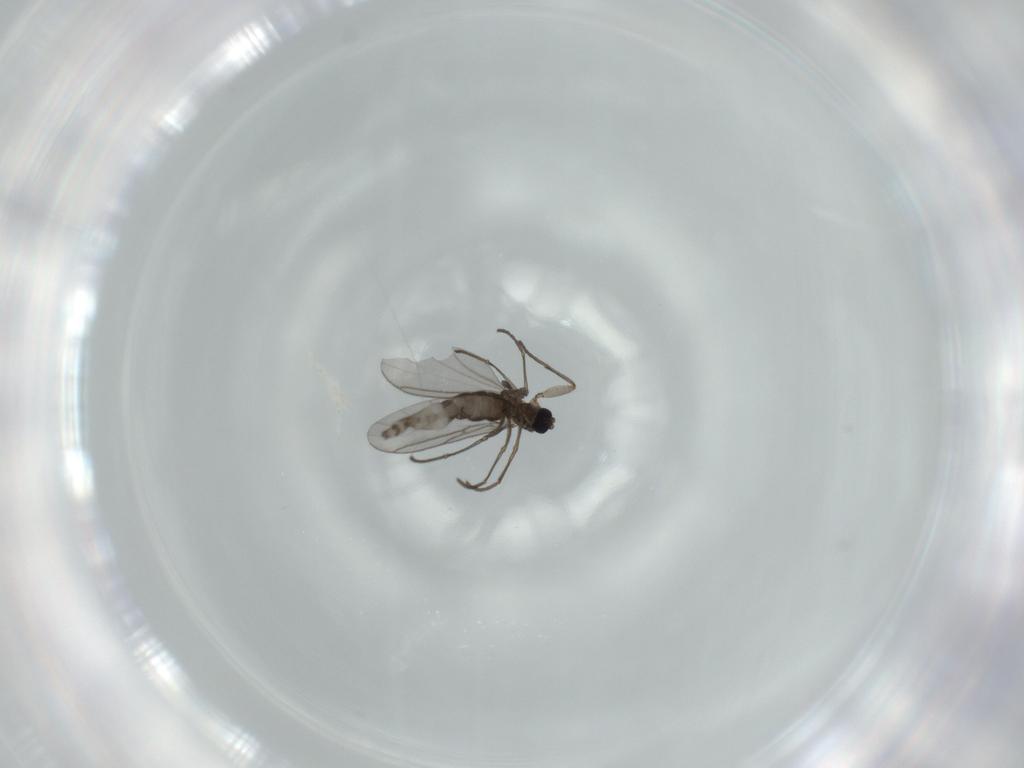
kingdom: Animalia
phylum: Arthropoda
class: Insecta
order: Diptera
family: Cecidomyiidae
